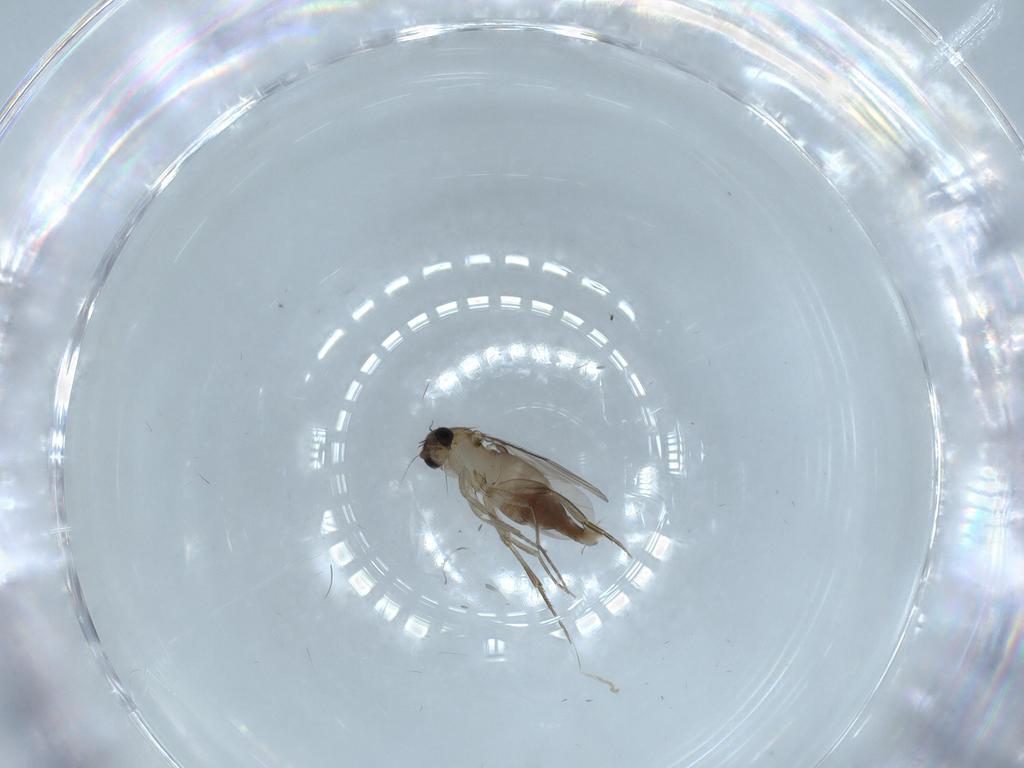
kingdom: Animalia
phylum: Arthropoda
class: Insecta
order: Diptera
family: Phoridae
